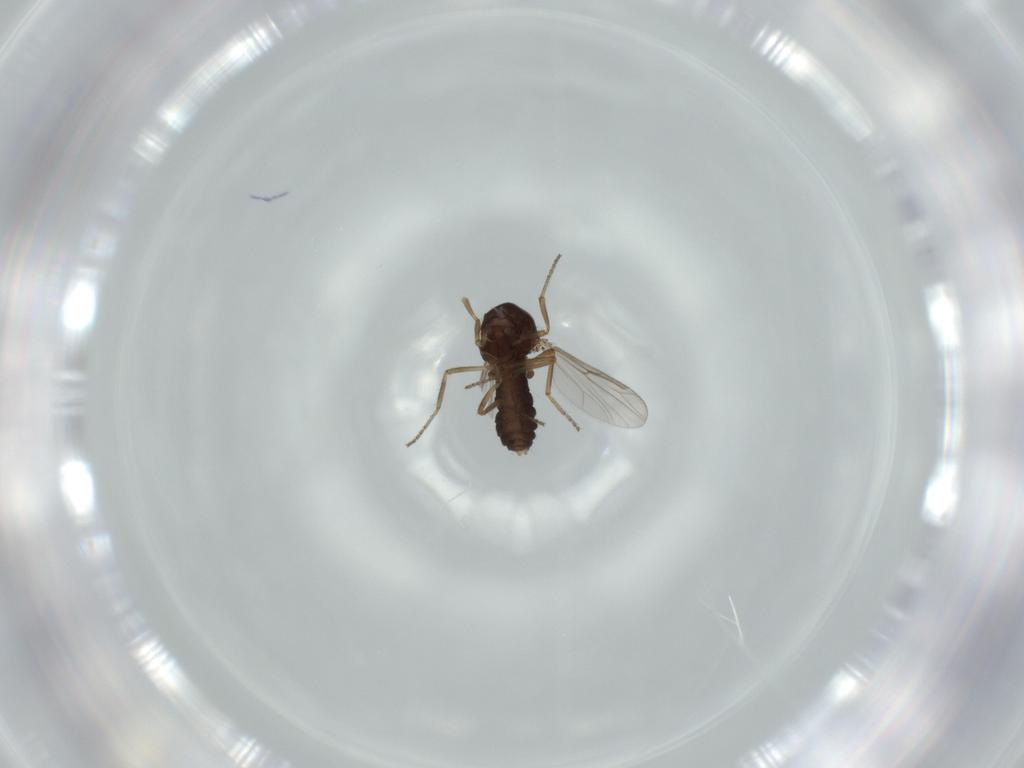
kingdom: Animalia
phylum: Arthropoda
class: Insecta
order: Diptera
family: Ceratopogonidae
